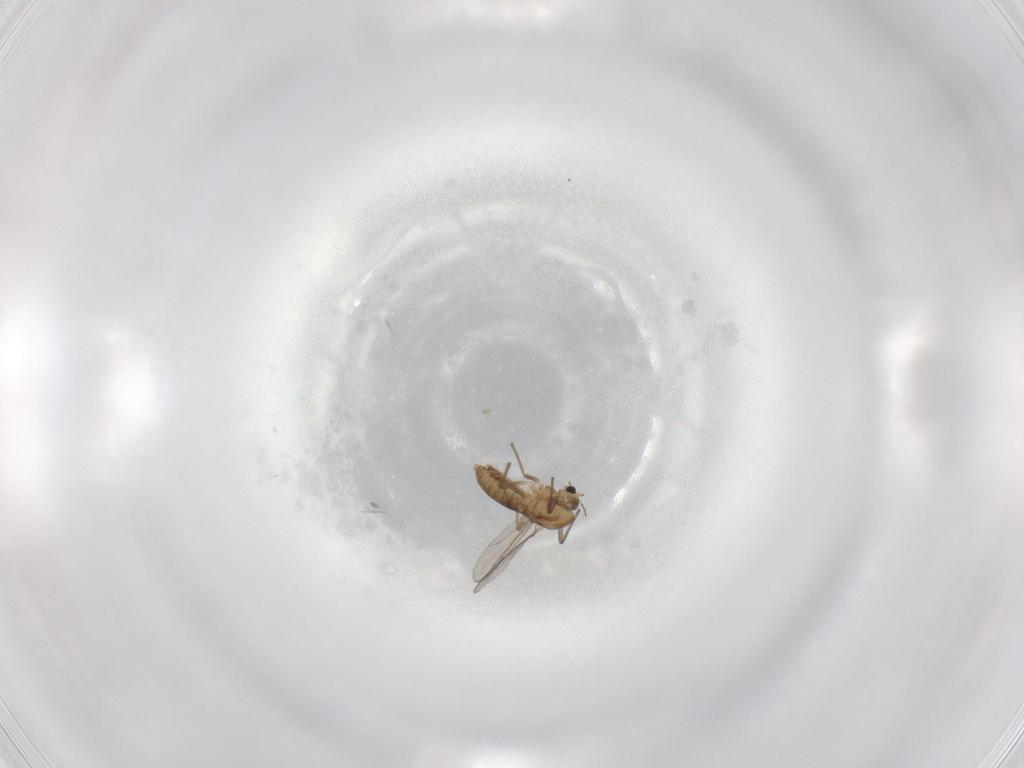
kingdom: Animalia
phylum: Arthropoda
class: Insecta
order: Diptera
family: Chironomidae
